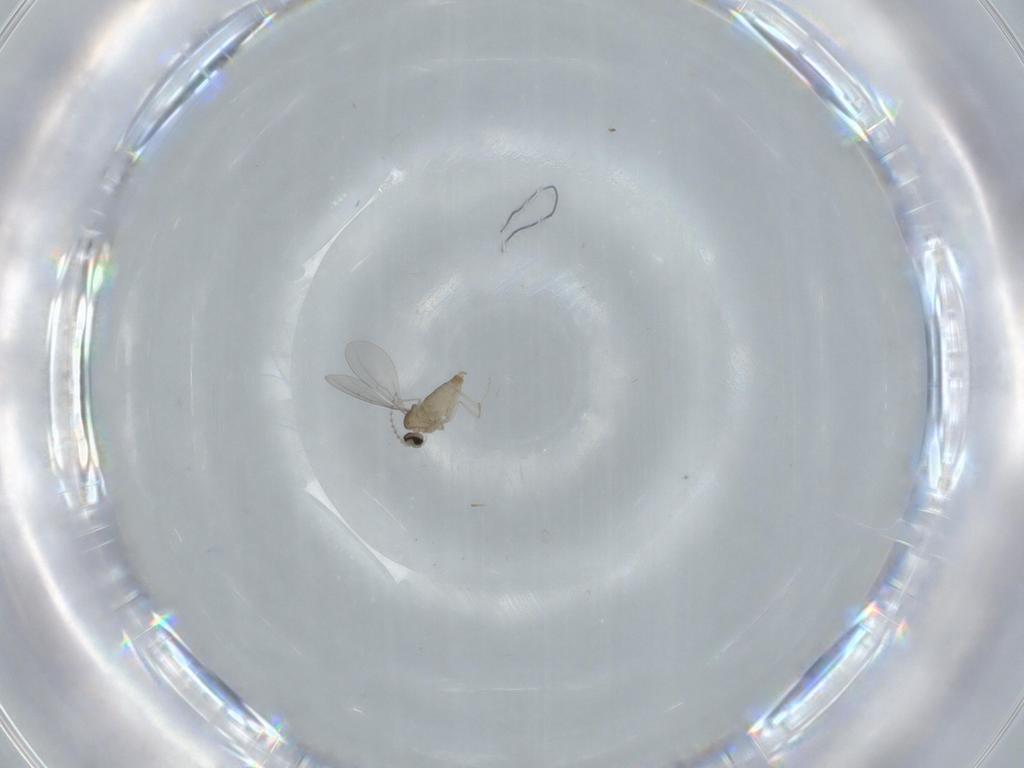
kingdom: Animalia
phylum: Arthropoda
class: Insecta
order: Diptera
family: Cecidomyiidae
